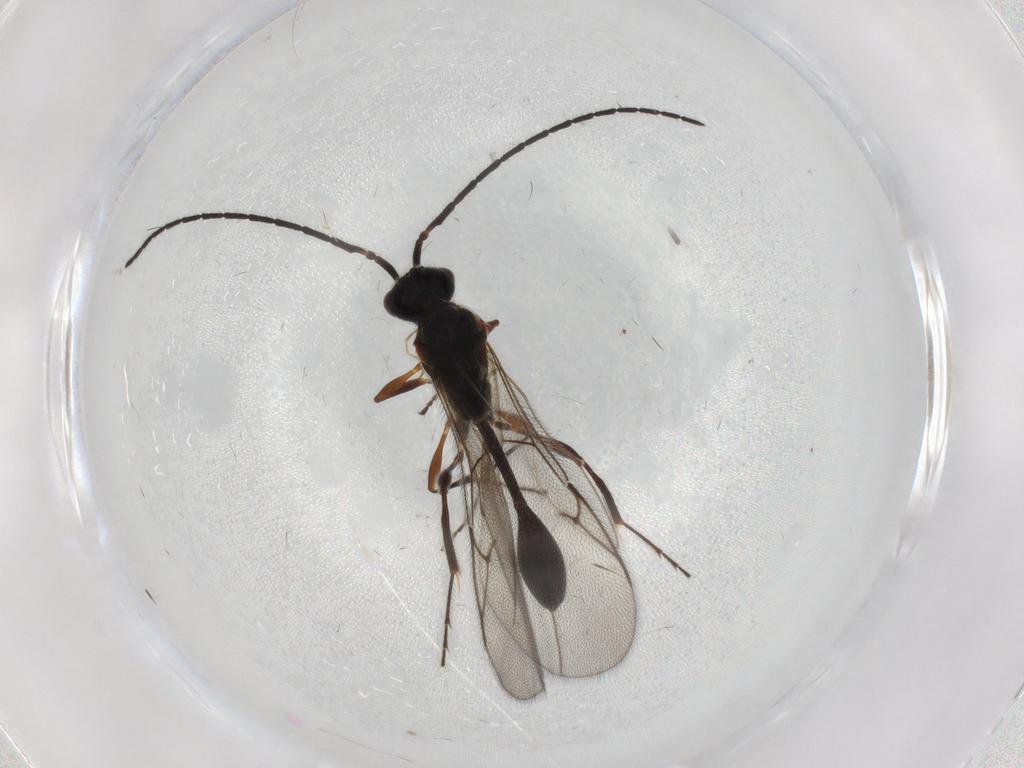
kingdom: Animalia
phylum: Arthropoda
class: Insecta
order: Hymenoptera
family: Diapriidae
